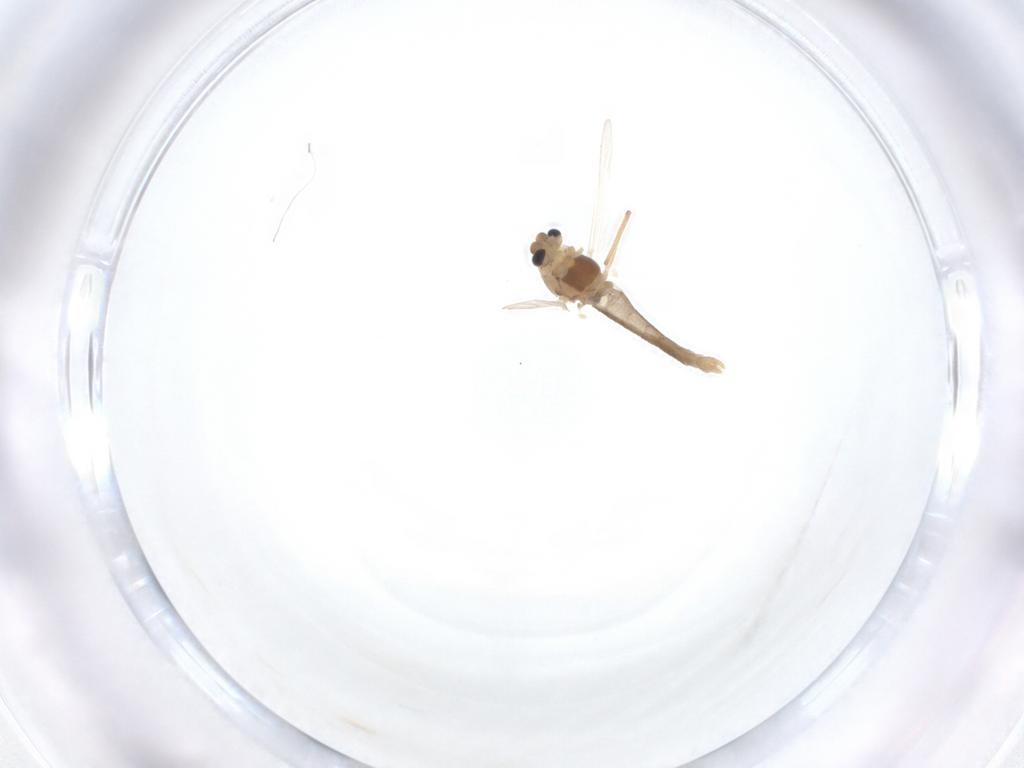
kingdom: Animalia
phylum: Arthropoda
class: Insecta
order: Diptera
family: Chironomidae
